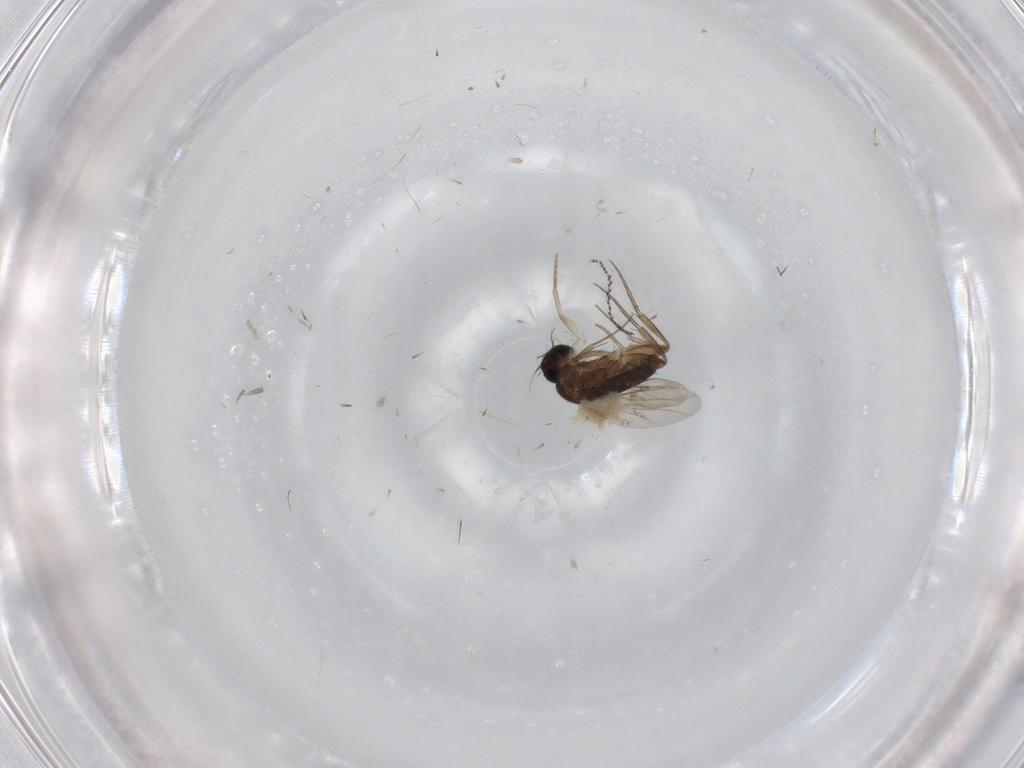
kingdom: Animalia
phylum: Arthropoda
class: Insecta
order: Diptera
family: Phoridae
